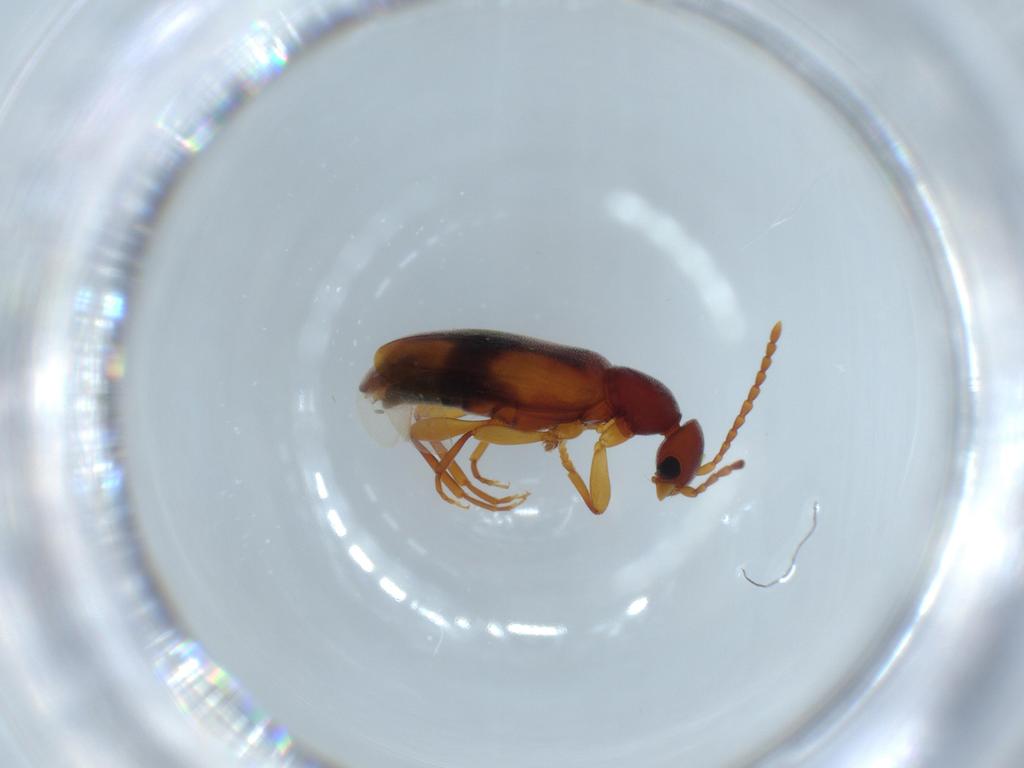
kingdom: Animalia
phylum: Arthropoda
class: Insecta
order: Coleoptera
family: Anthicidae
